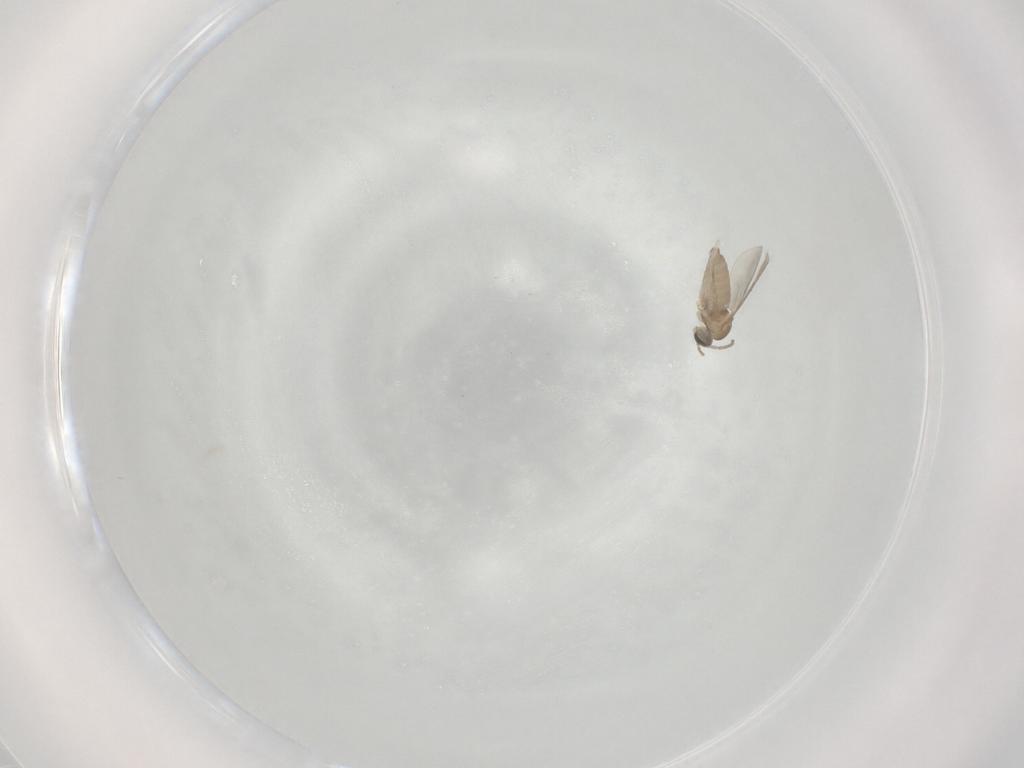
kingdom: Animalia
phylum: Arthropoda
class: Insecta
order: Diptera
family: Cecidomyiidae
